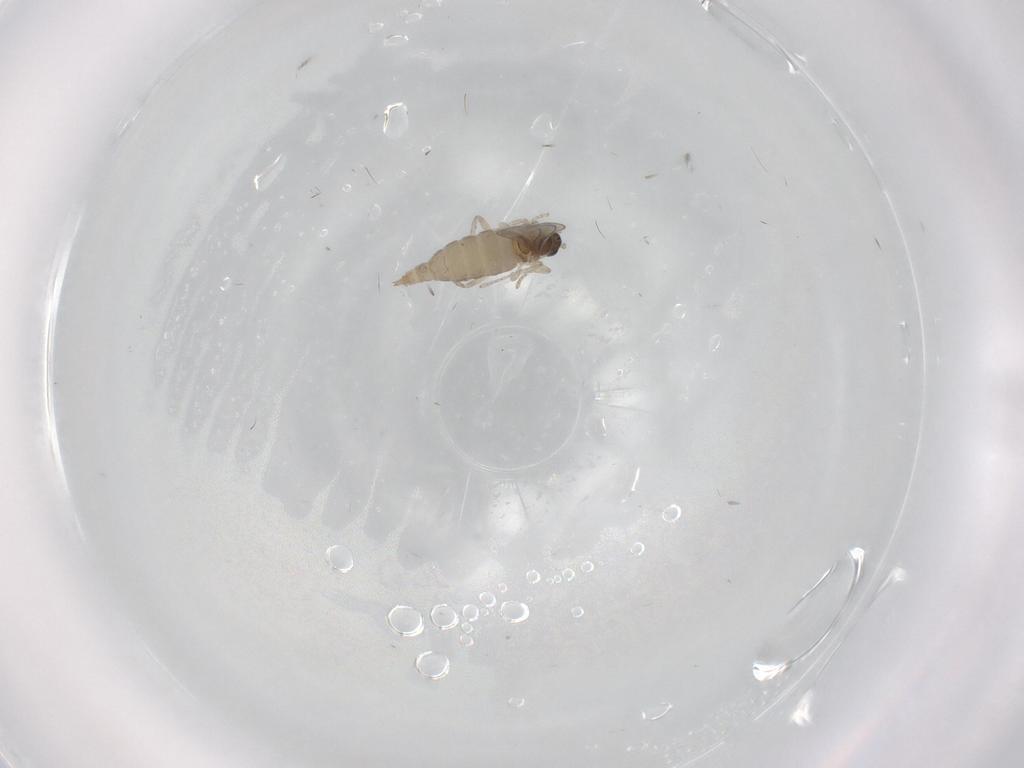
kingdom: Animalia
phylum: Arthropoda
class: Insecta
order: Diptera
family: Cecidomyiidae
